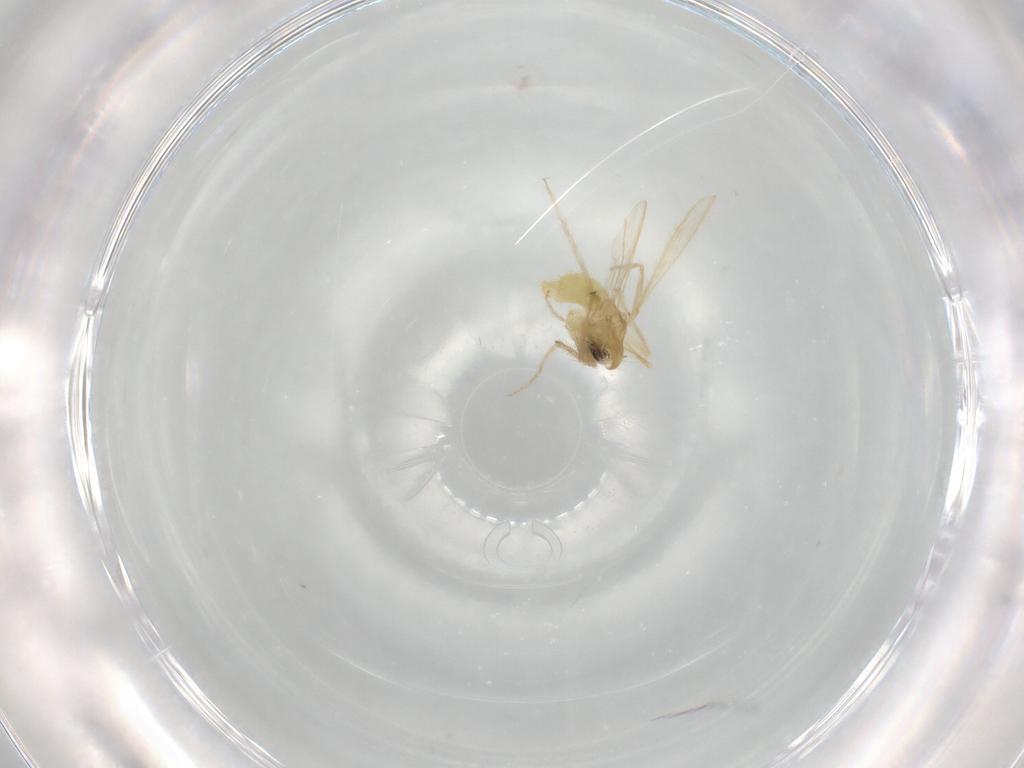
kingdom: Animalia
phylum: Arthropoda
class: Insecta
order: Diptera
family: Chironomidae
